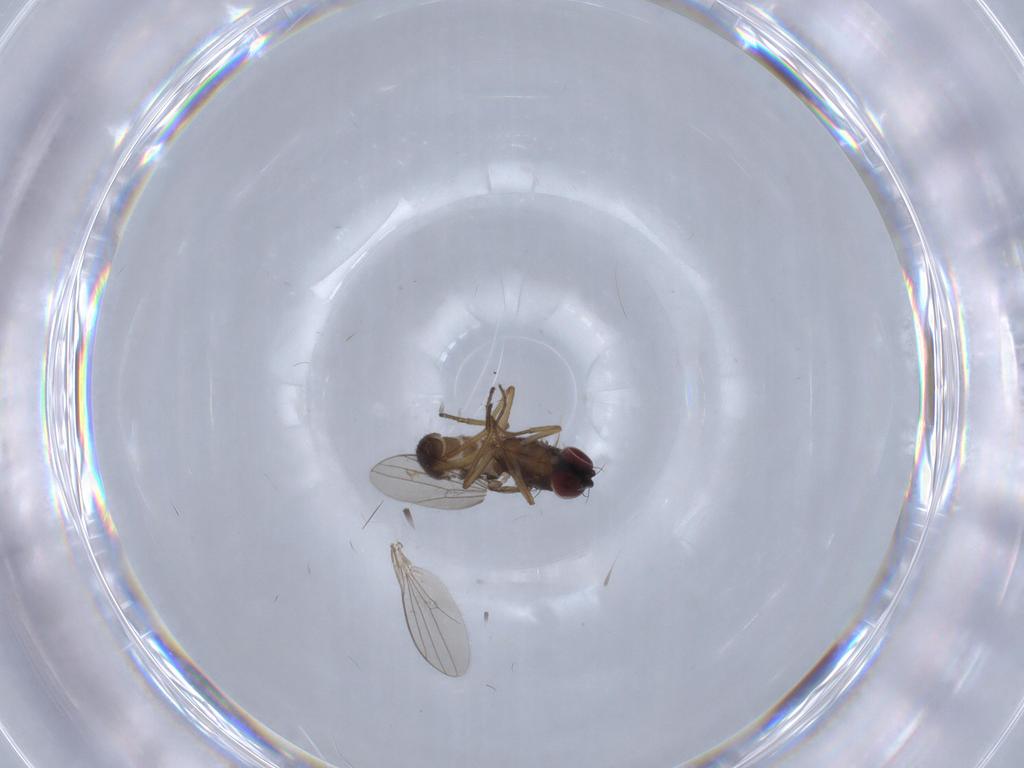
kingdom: Animalia
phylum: Arthropoda
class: Insecta
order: Diptera
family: Dolichopodidae
